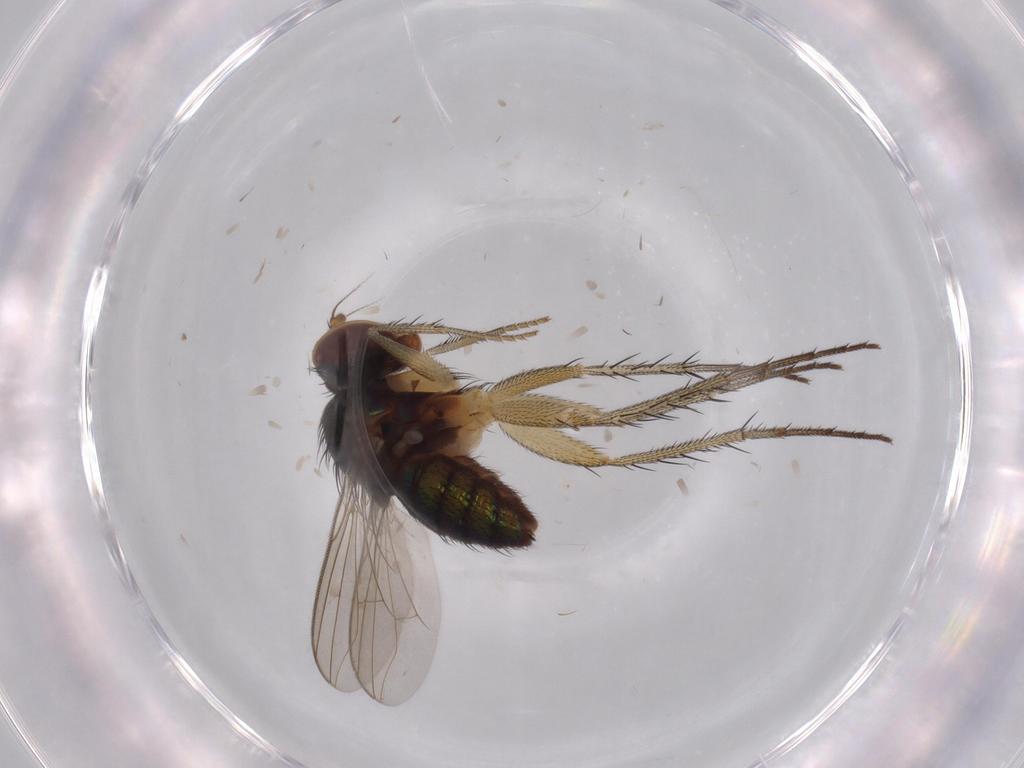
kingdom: Animalia
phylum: Arthropoda
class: Insecta
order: Diptera
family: Dolichopodidae
